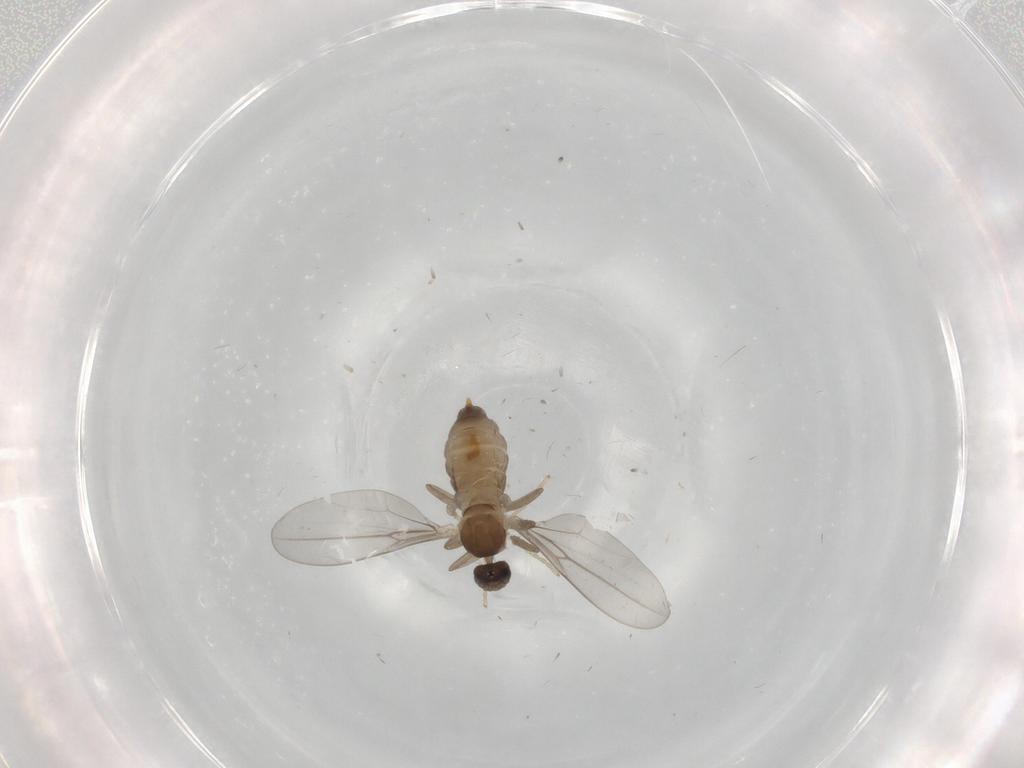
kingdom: Animalia
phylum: Arthropoda
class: Insecta
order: Diptera
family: Cecidomyiidae
